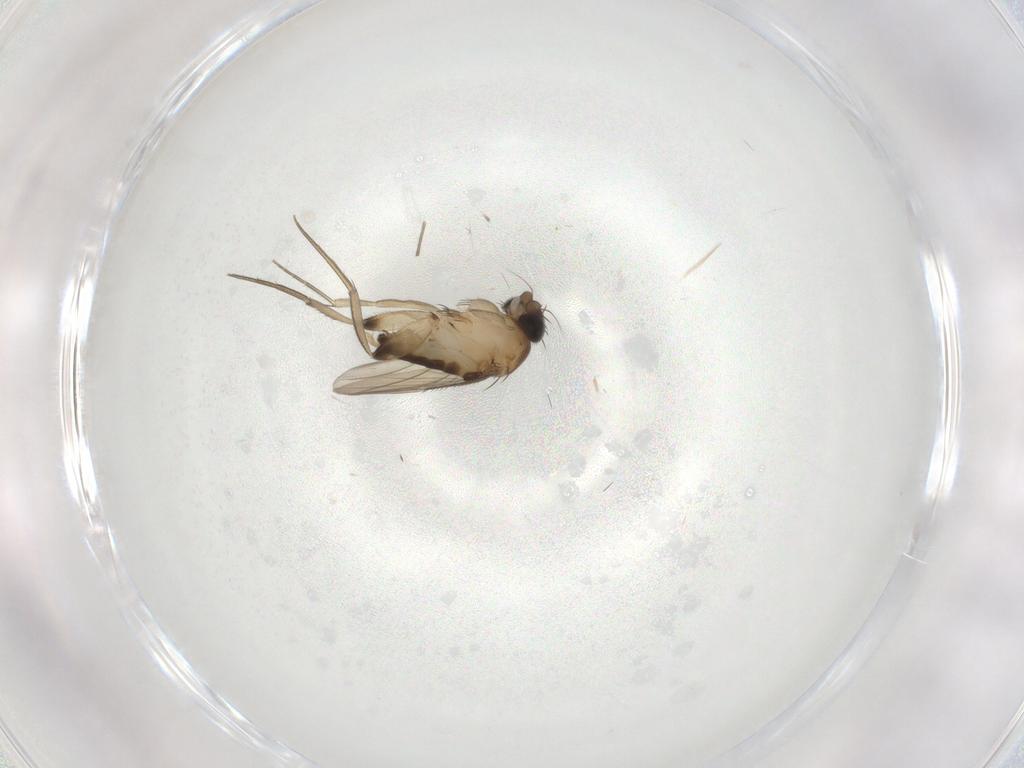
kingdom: Animalia
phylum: Arthropoda
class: Insecta
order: Diptera
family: Phoridae
